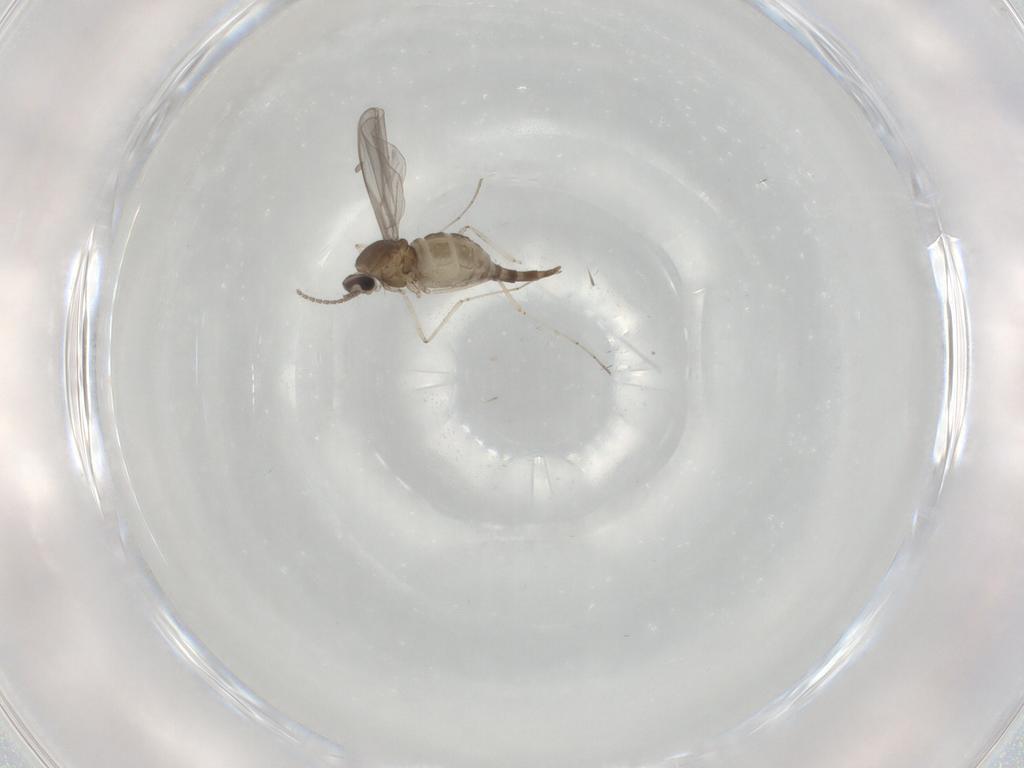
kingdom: Animalia
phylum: Arthropoda
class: Insecta
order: Diptera
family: Cecidomyiidae
